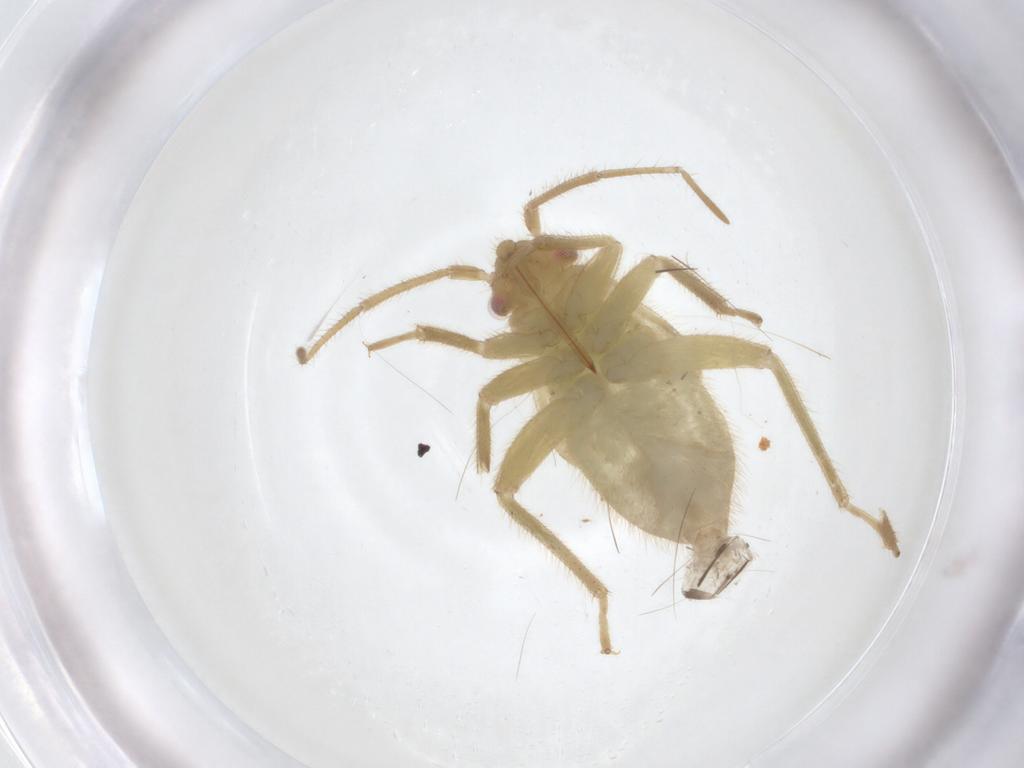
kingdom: Animalia
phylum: Arthropoda
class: Insecta
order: Hemiptera
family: Miridae
